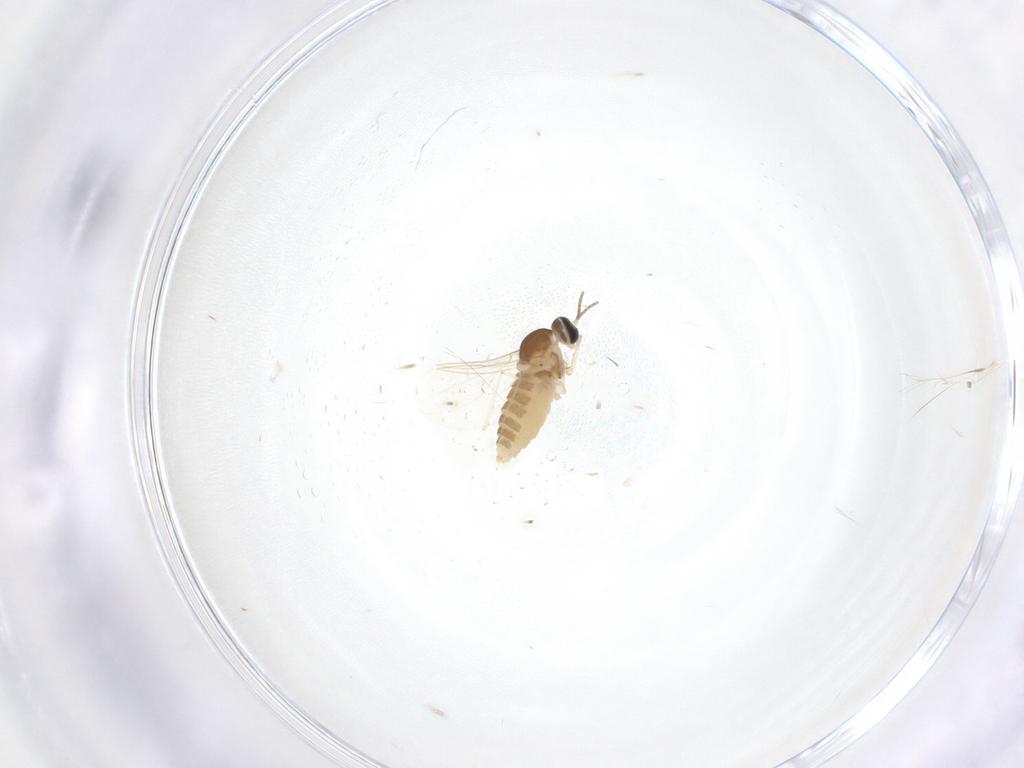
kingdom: Animalia
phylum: Arthropoda
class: Insecta
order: Diptera
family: Cecidomyiidae
